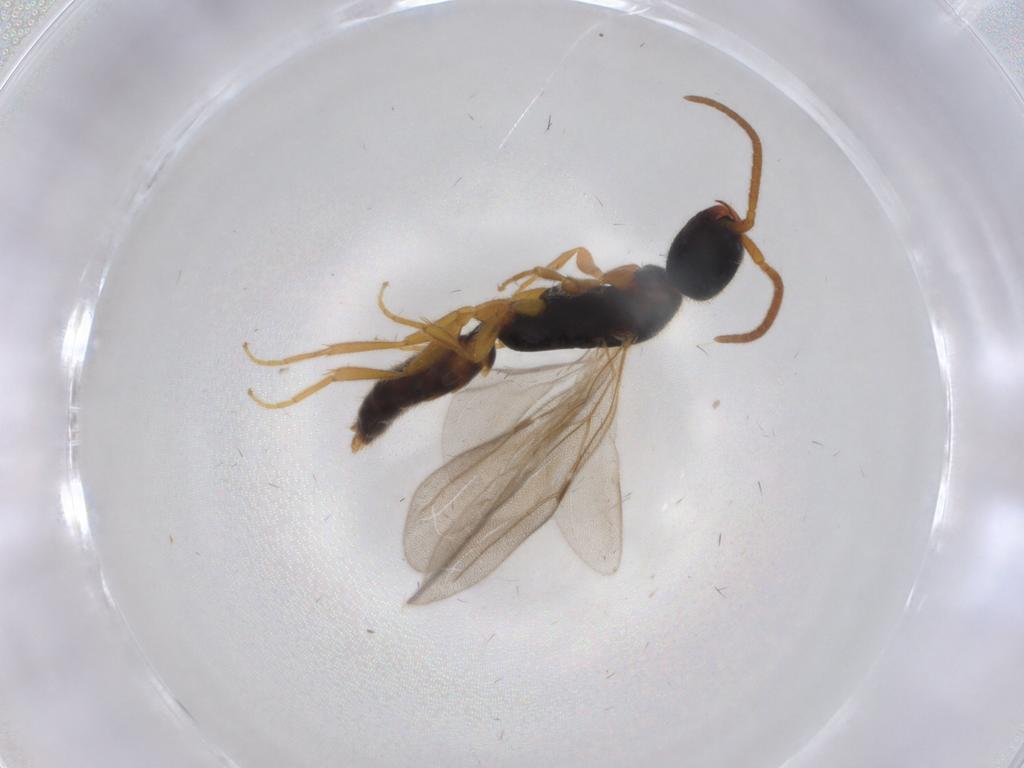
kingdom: Animalia
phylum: Arthropoda
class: Insecta
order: Hymenoptera
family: Bethylidae
